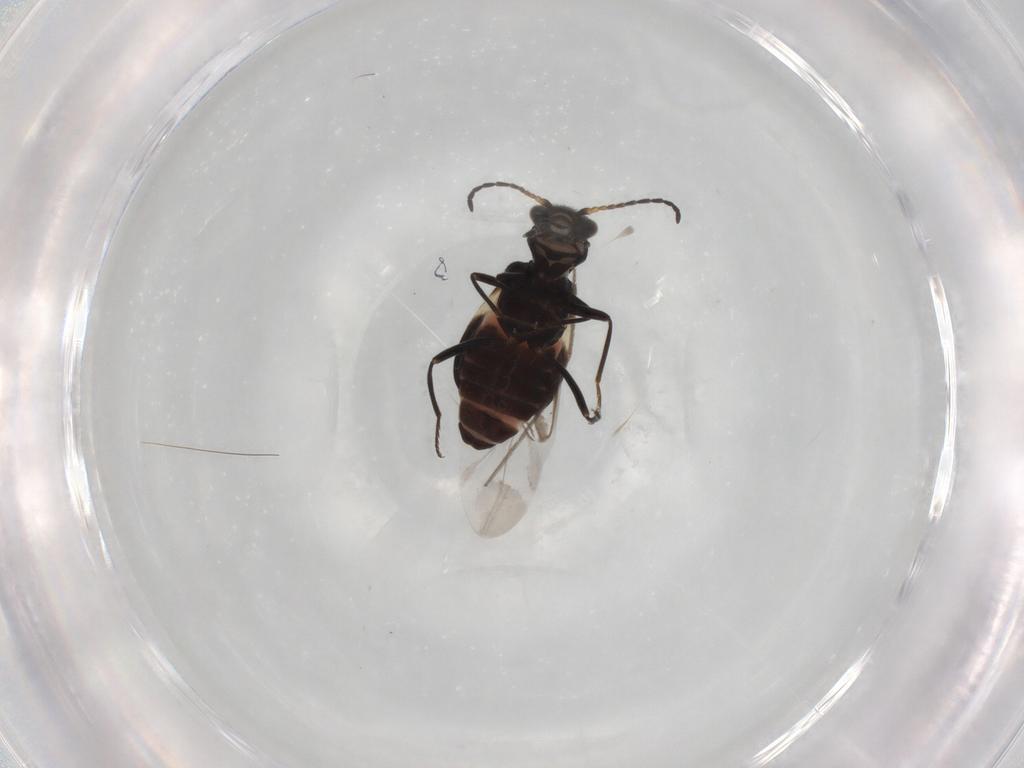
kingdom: Animalia
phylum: Arthropoda
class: Insecta
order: Coleoptera
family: Melyridae
